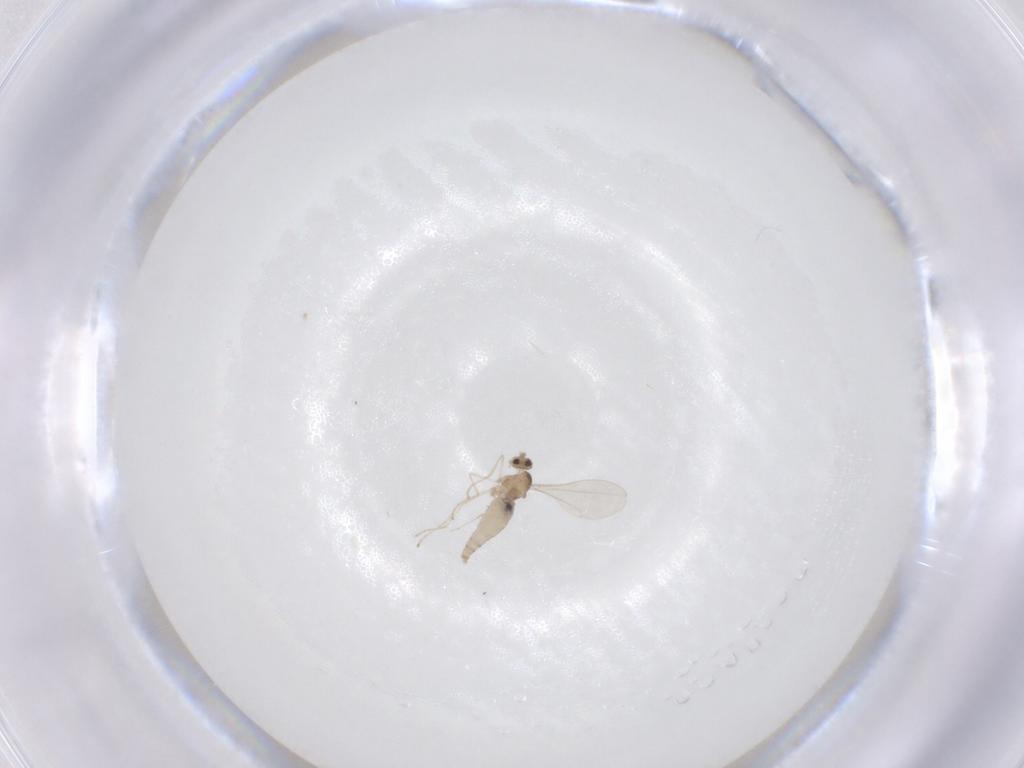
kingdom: Animalia
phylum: Arthropoda
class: Insecta
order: Diptera
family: Cecidomyiidae
